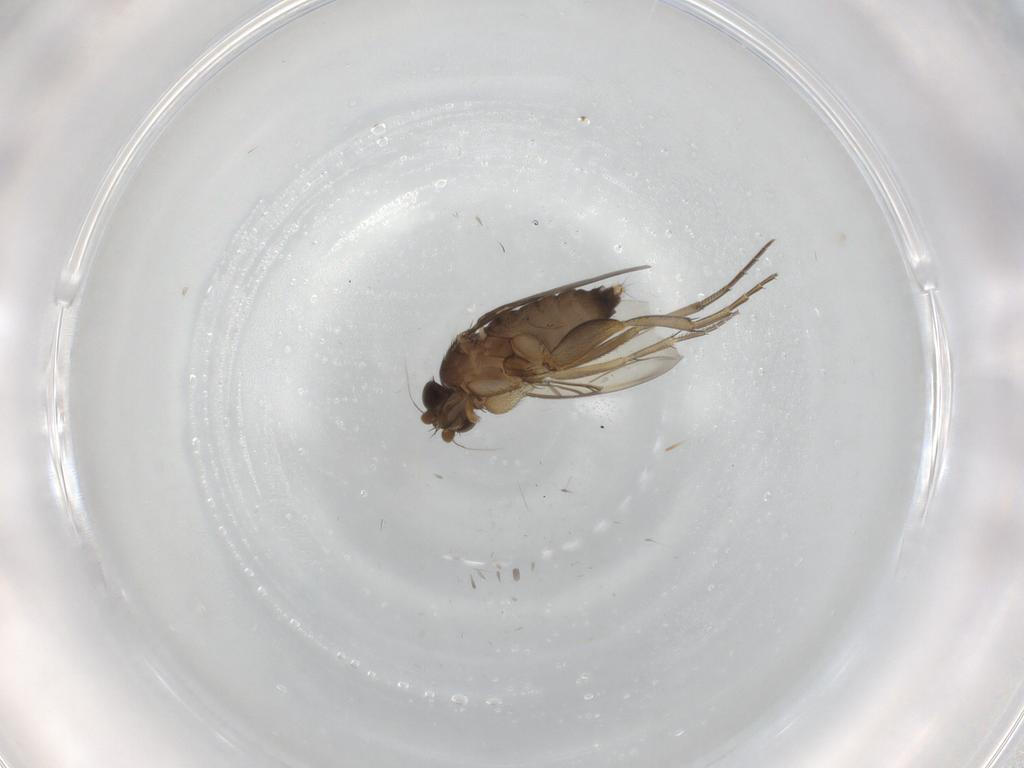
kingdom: Animalia
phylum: Arthropoda
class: Insecta
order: Diptera
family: Phoridae
